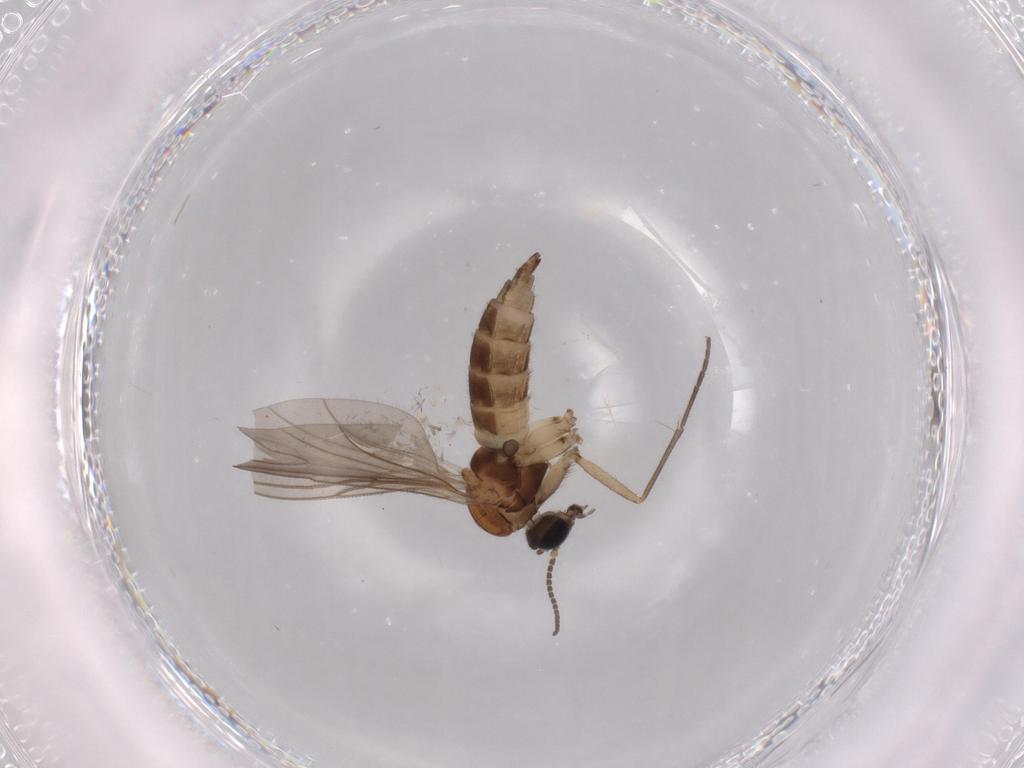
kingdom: Animalia
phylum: Arthropoda
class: Insecta
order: Diptera
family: Sciaridae
